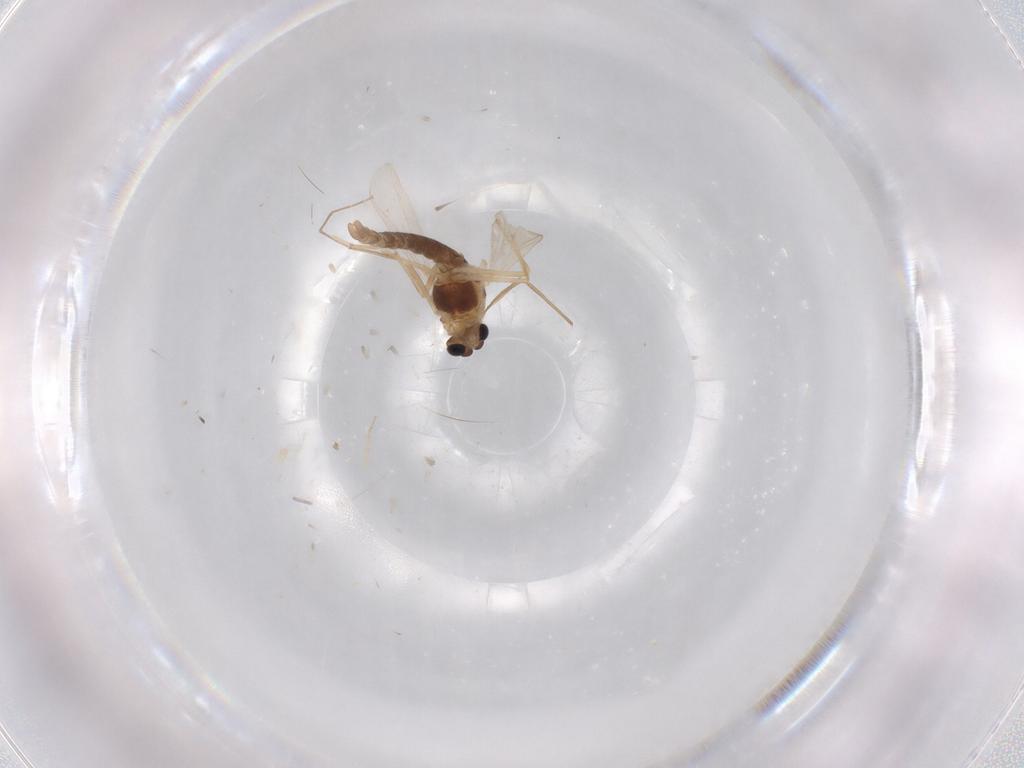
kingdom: Animalia
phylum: Arthropoda
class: Insecta
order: Diptera
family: Chironomidae
